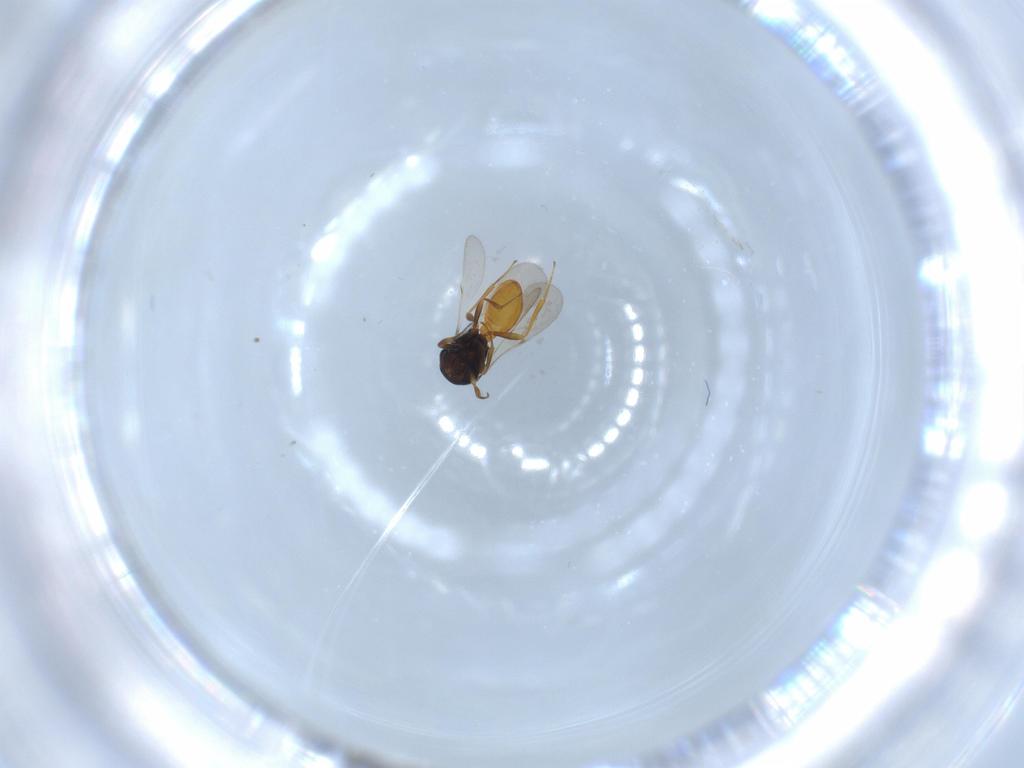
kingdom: Animalia
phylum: Arthropoda
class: Insecta
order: Hymenoptera
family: Scelionidae
